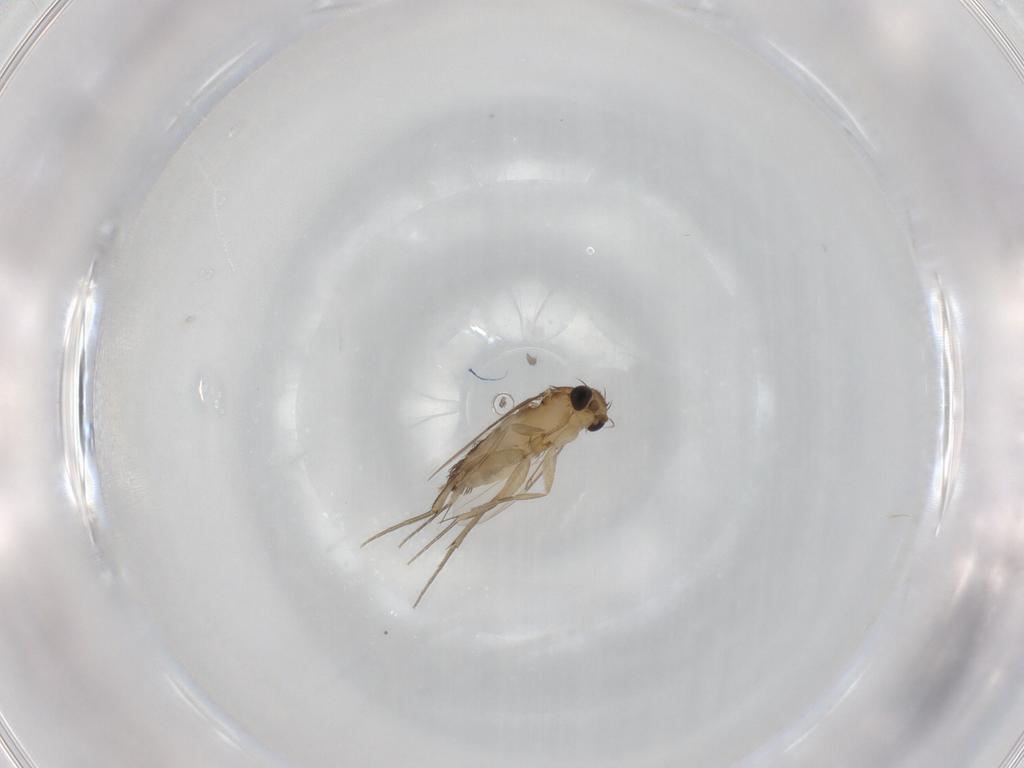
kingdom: Animalia
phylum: Arthropoda
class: Insecta
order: Diptera
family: Phoridae
